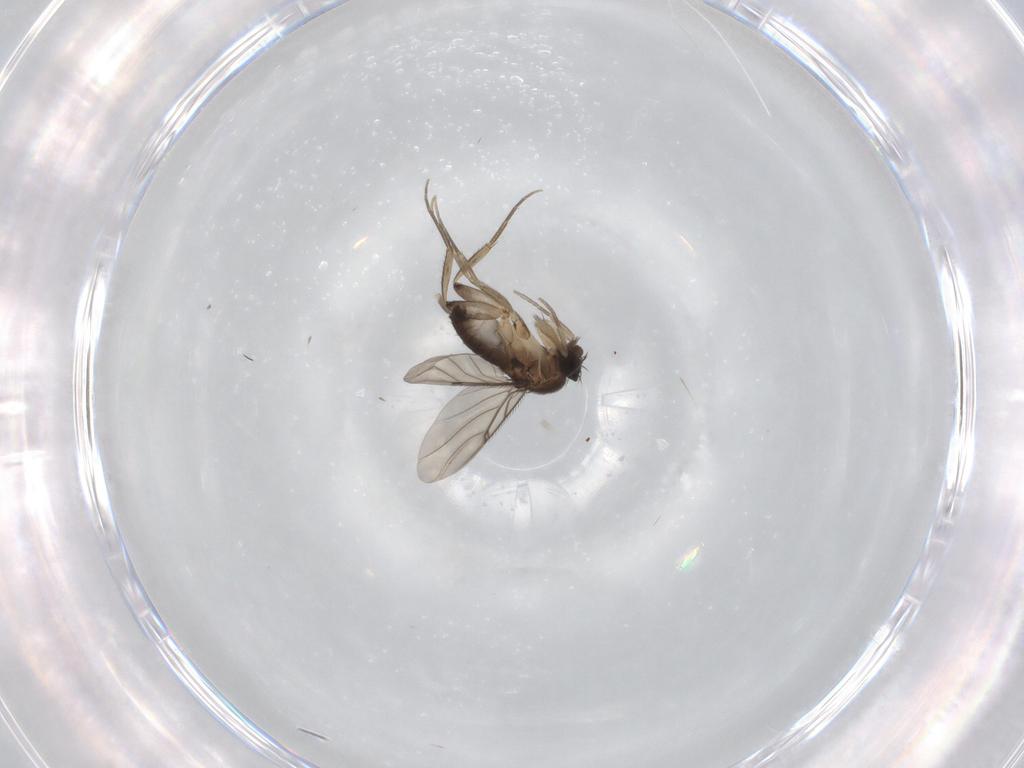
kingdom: Animalia
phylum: Arthropoda
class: Insecta
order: Diptera
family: Phoridae
